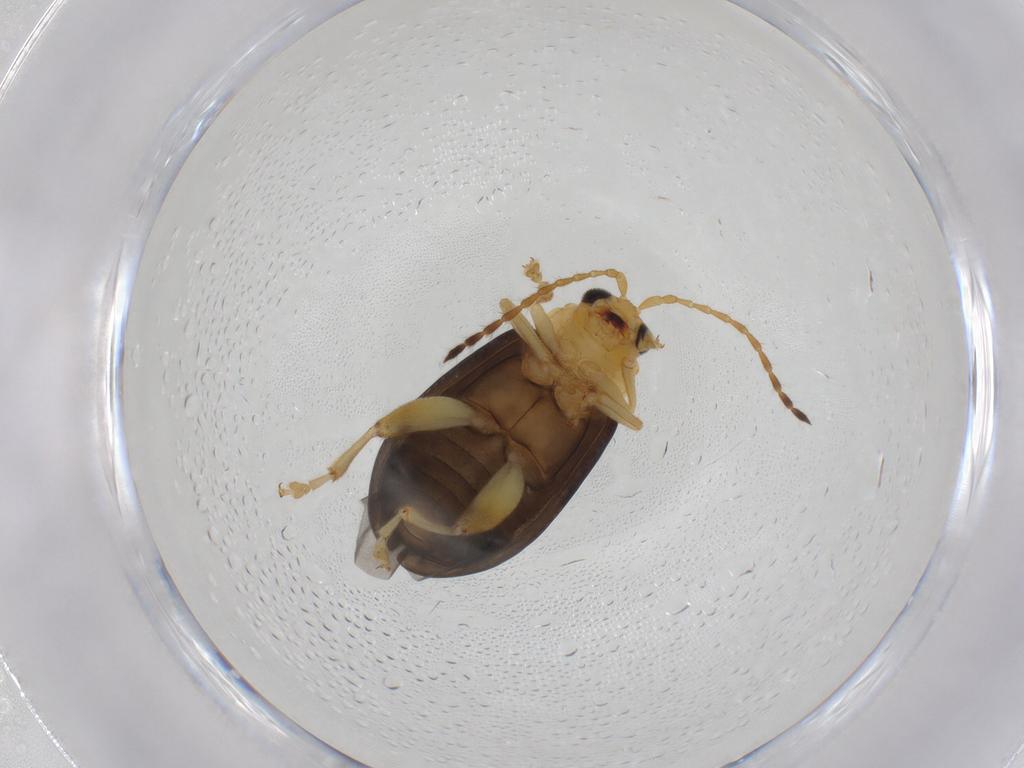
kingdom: Animalia
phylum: Arthropoda
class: Insecta
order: Coleoptera
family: Chrysomelidae
